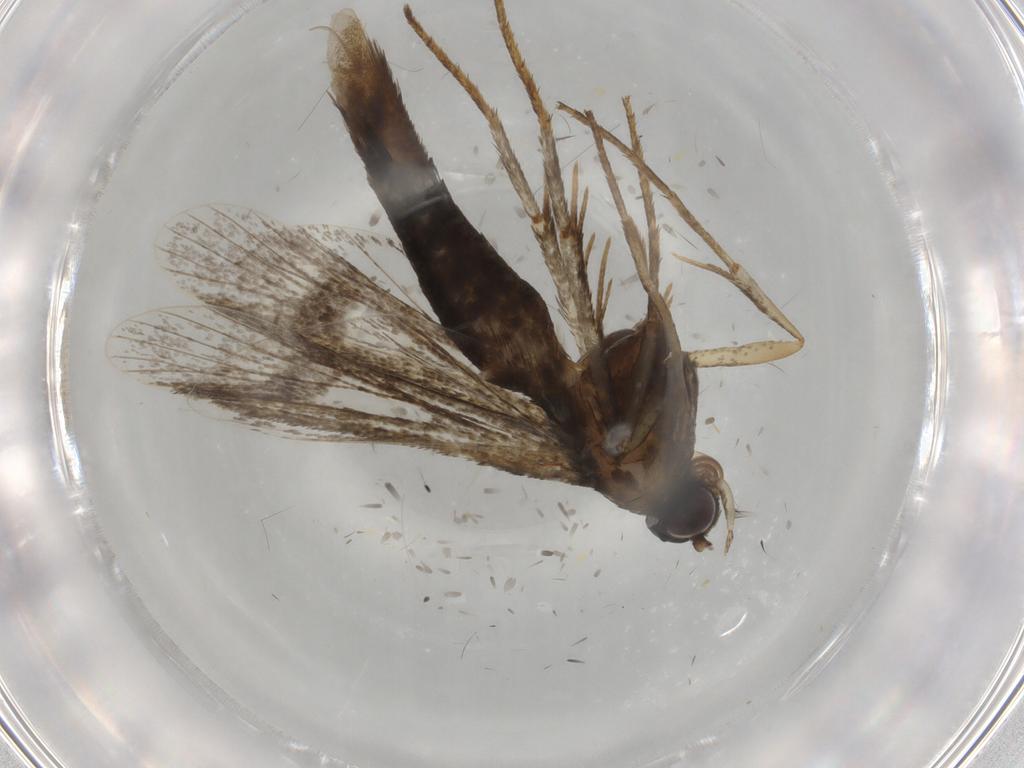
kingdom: Animalia
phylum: Arthropoda
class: Insecta
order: Lepidoptera
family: Sesiidae
